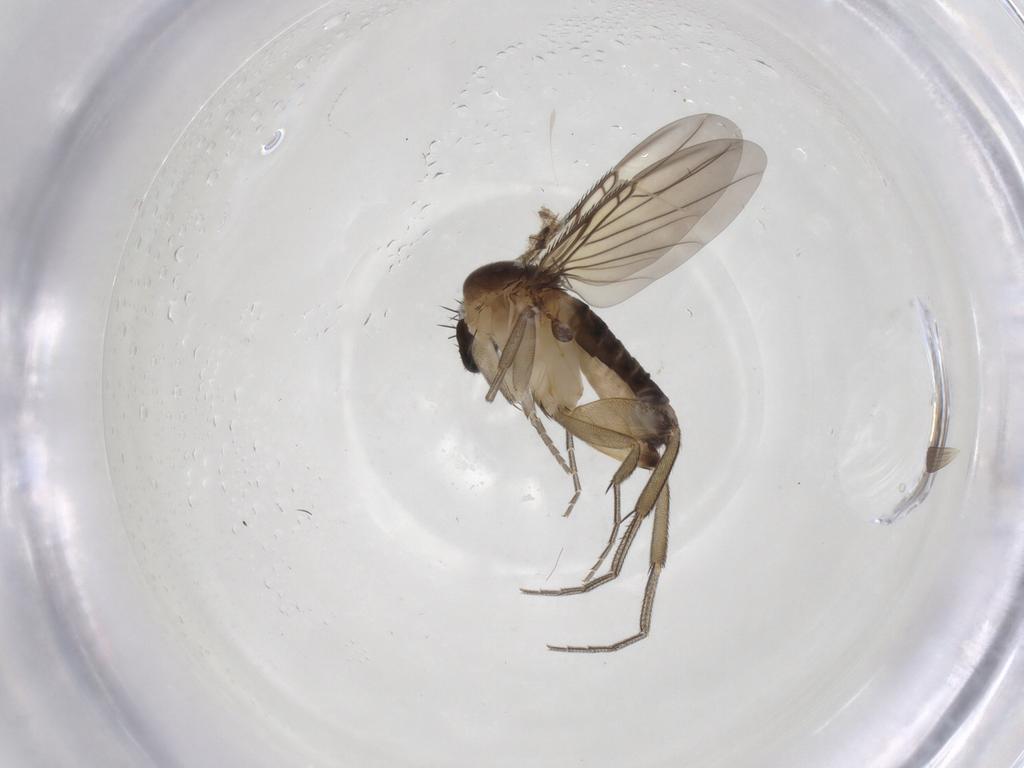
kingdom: Animalia
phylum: Arthropoda
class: Insecta
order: Diptera
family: Phoridae
